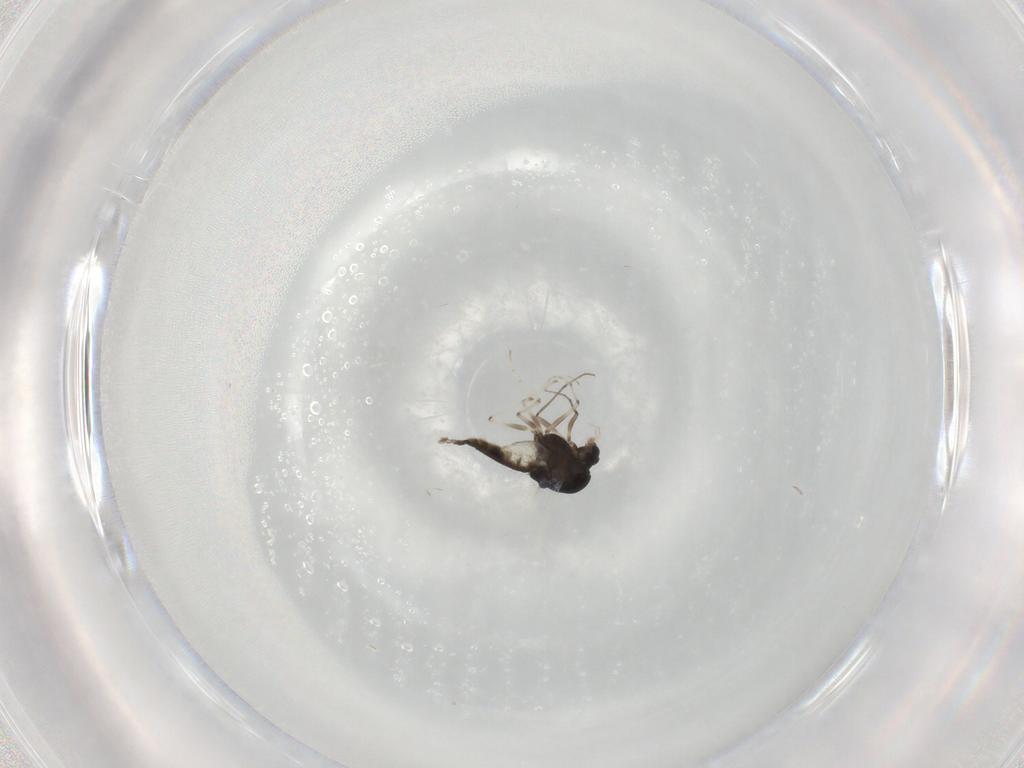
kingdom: Animalia
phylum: Arthropoda
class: Insecta
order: Diptera
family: Chironomidae
